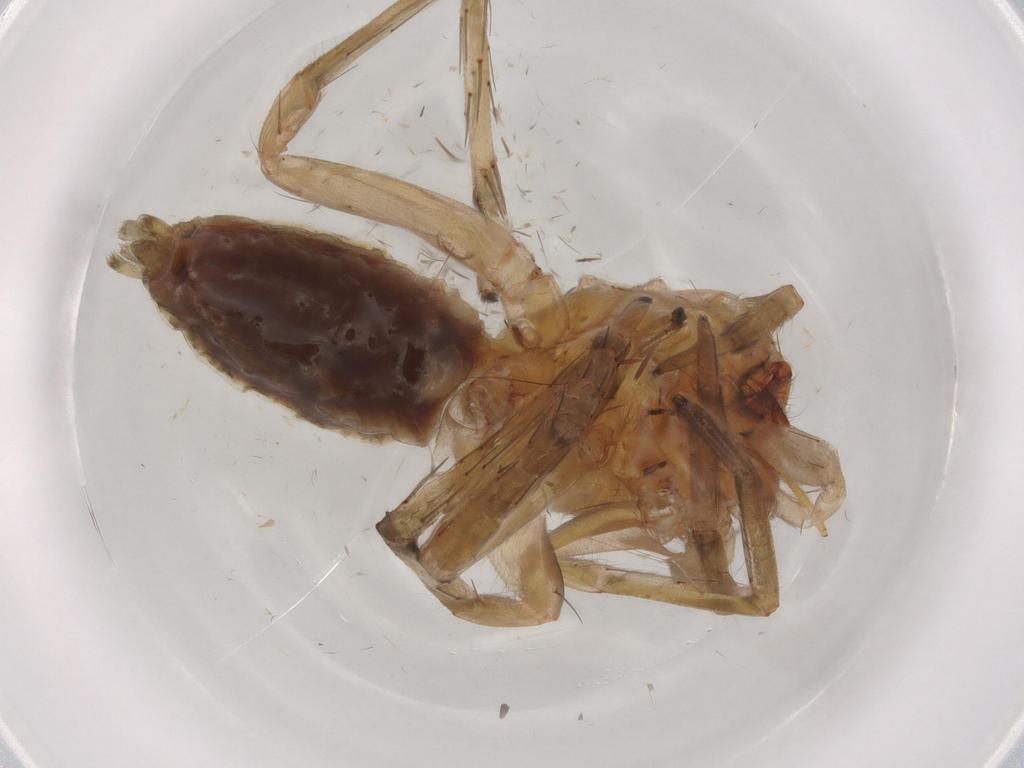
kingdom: Animalia
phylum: Arthropoda
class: Arachnida
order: Araneae
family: Anyphaenidae
